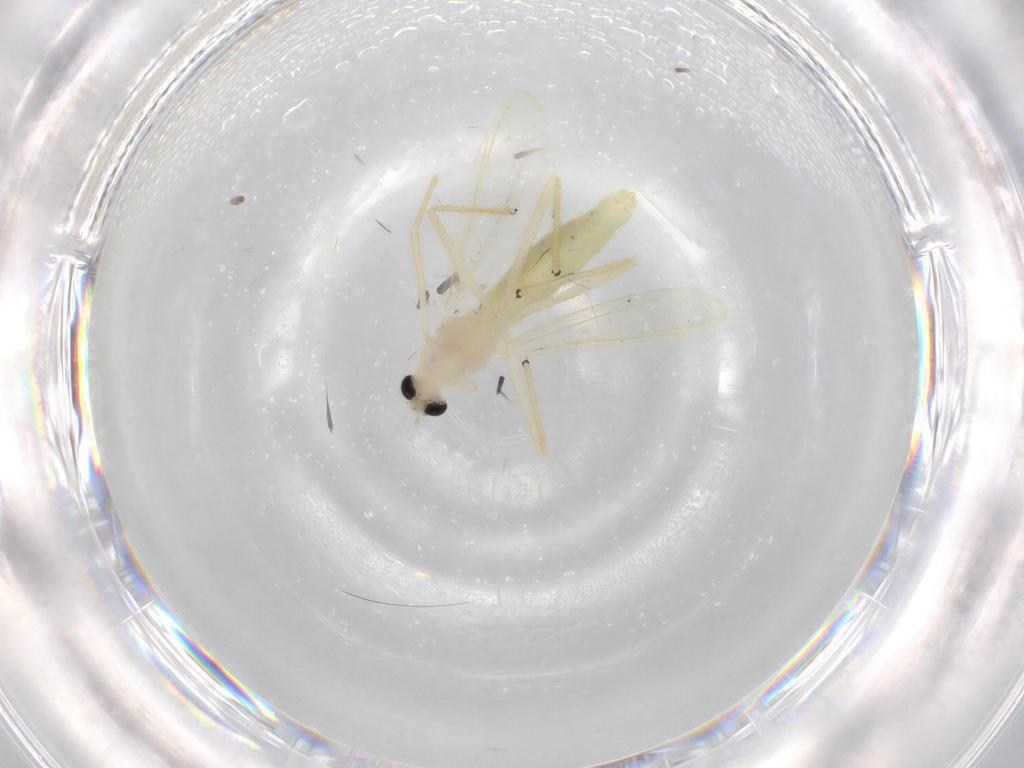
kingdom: Animalia
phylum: Arthropoda
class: Insecta
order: Diptera
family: Chironomidae
